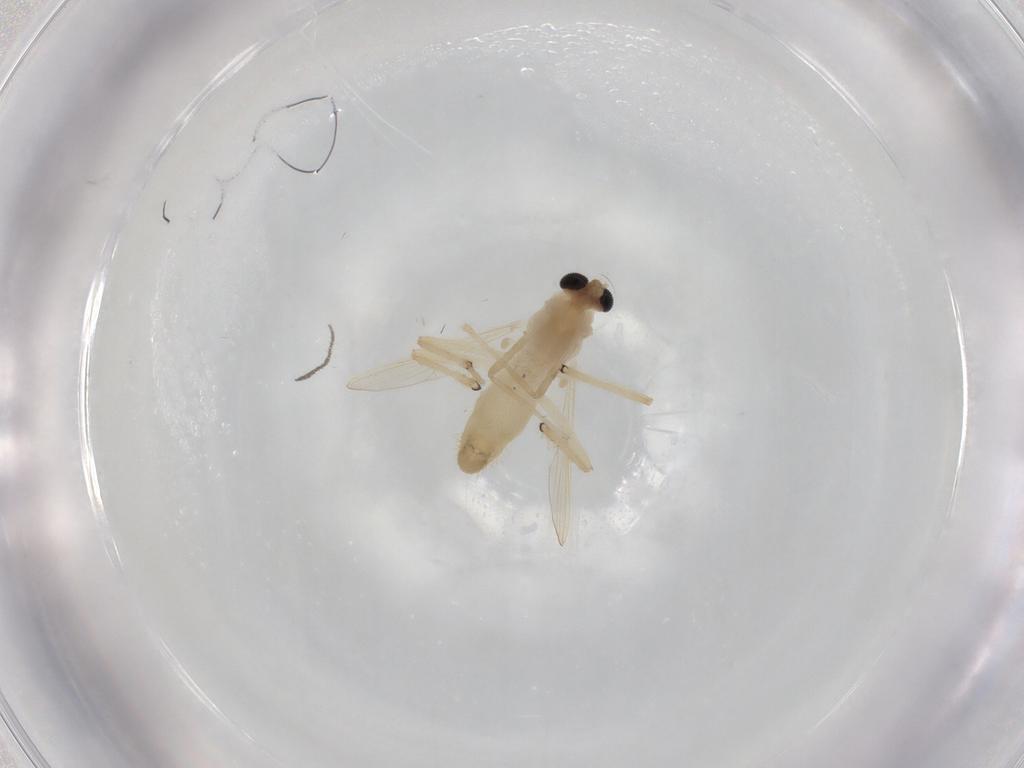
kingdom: Animalia
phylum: Arthropoda
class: Insecta
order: Diptera
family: Chironomidae
